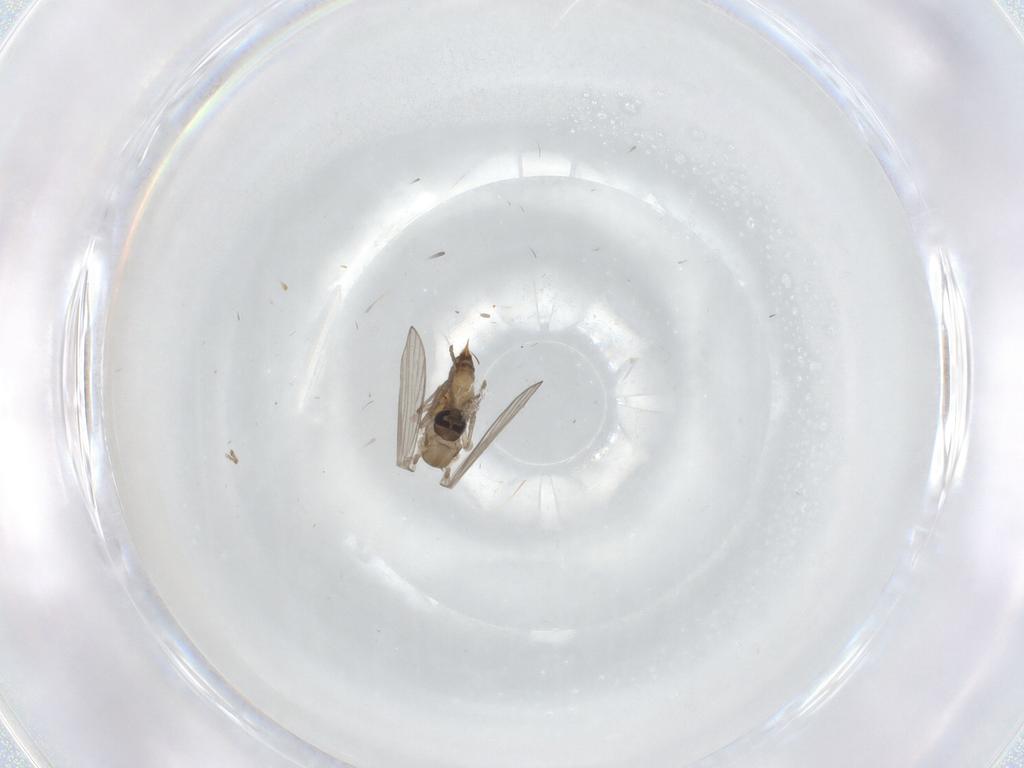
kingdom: Animalia
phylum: Arthropoda
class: Insecta
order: Diptera
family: Psychodidae
